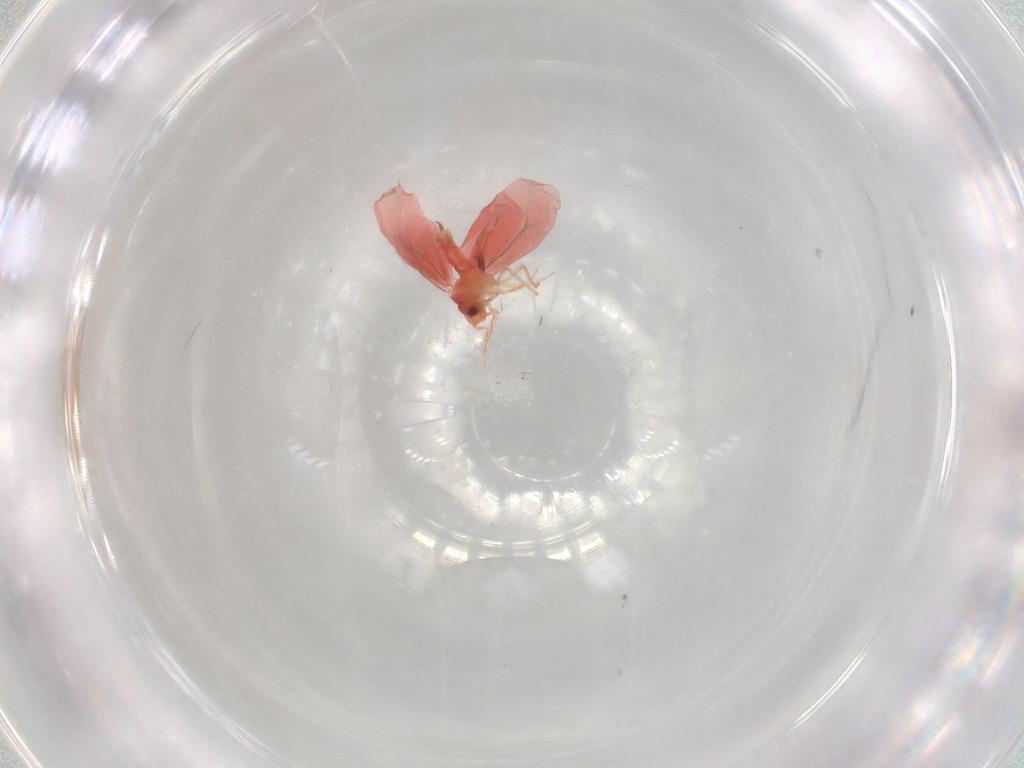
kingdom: Animalia
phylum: Arthropoda
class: Insecta
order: Hemiptera
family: Aleyrodidae
